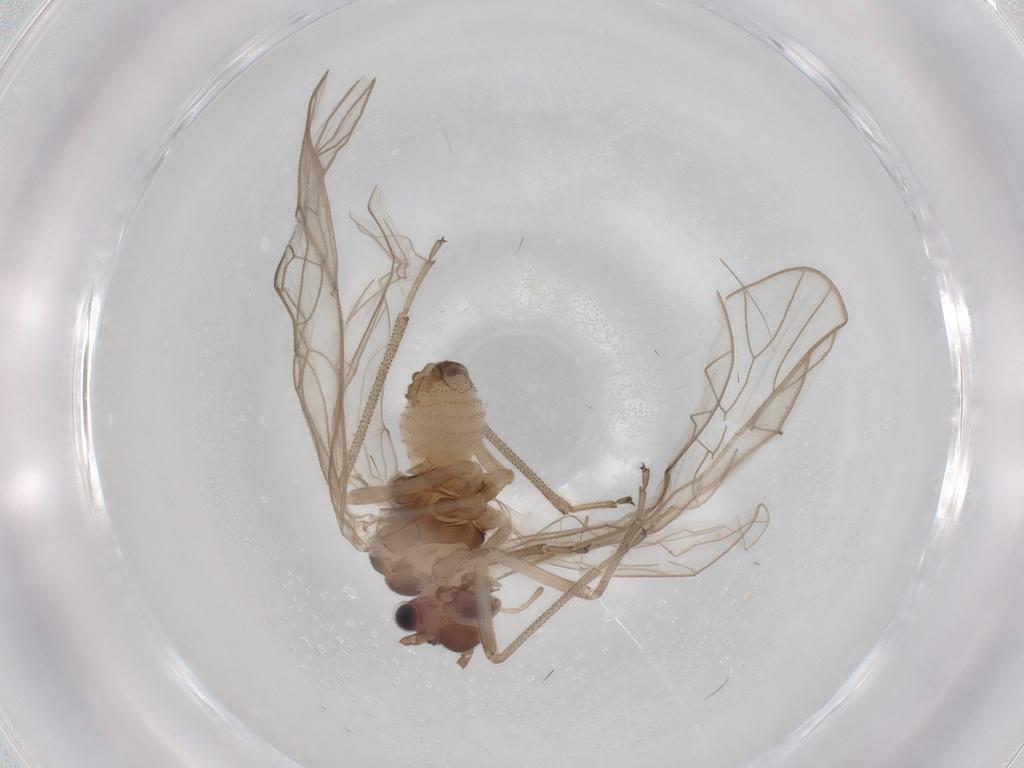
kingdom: Animalia
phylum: Arthropoda
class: Insecta
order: Psocodea
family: Stenopsocidae
